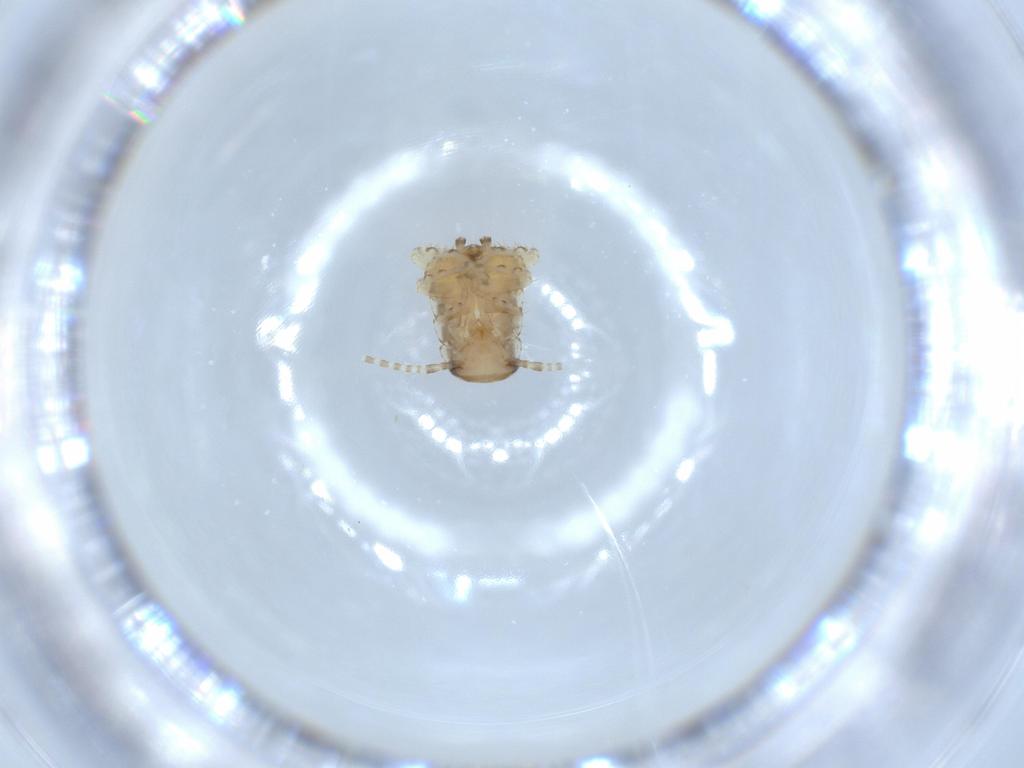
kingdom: Animalia
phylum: Arthropoda
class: Insecta
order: Blattodea
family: Ectobiidae
